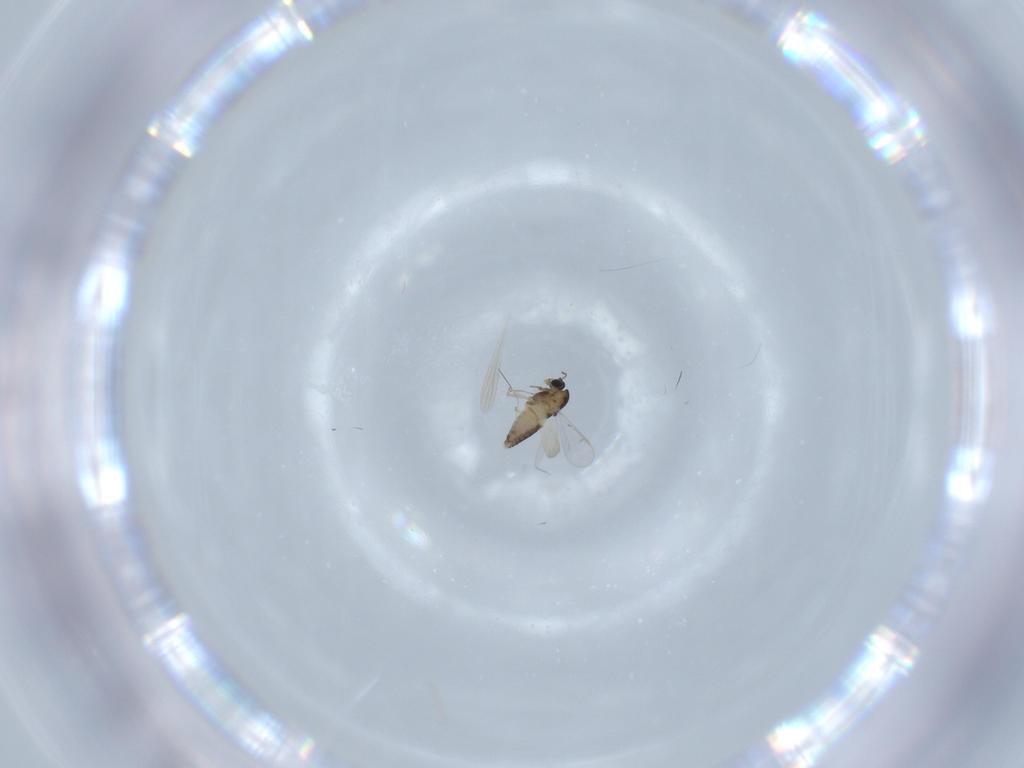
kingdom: Animalia
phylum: Arthropoda
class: Insecta
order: Diptera
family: Chironomidae
